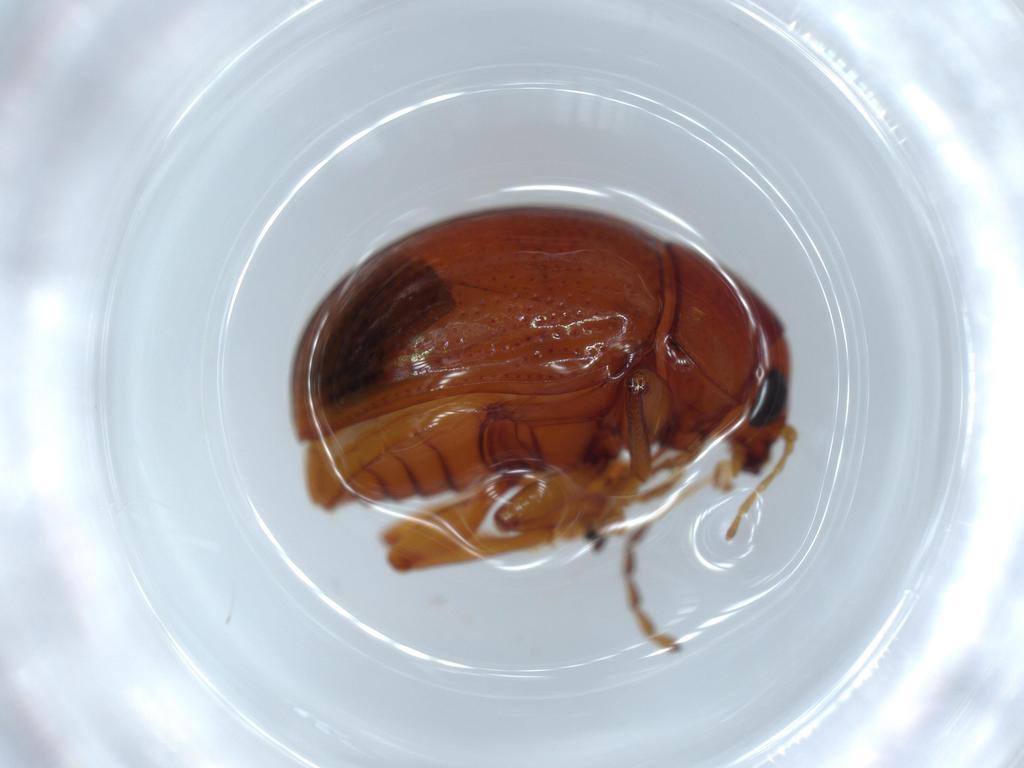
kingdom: Animalia
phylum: Arthropoda
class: Insecta
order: Coleoptera
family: Chrysomelidae
